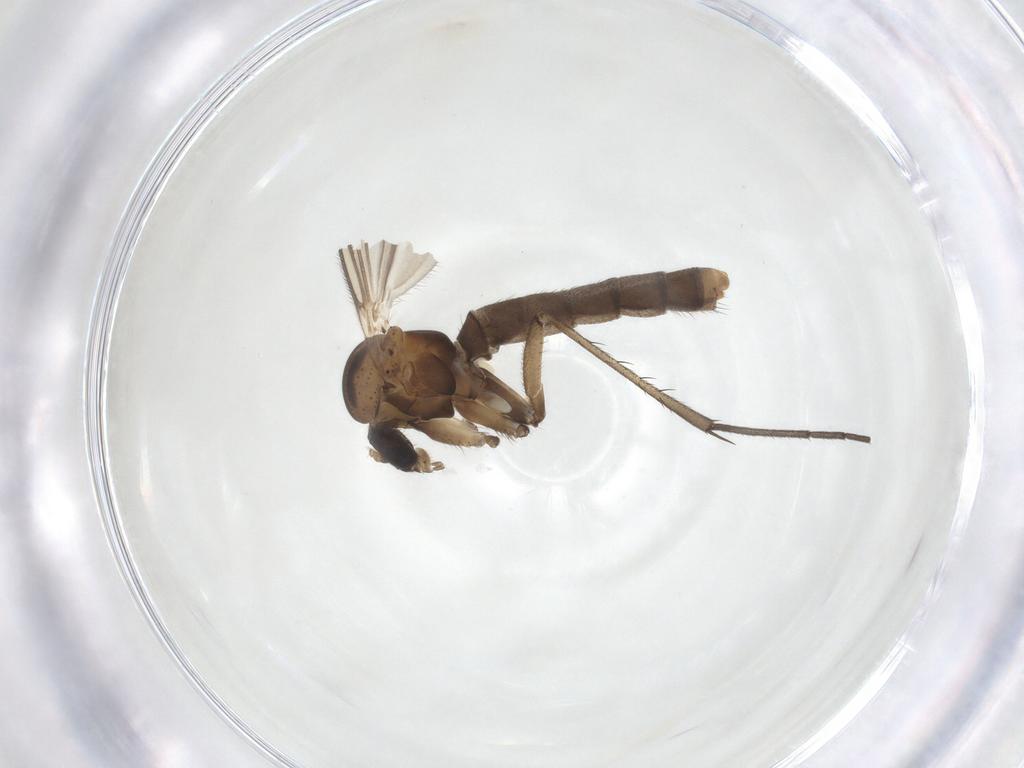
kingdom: Animalia
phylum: Arthropoda
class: Insecta
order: Diptera
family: Mycetophilidae
